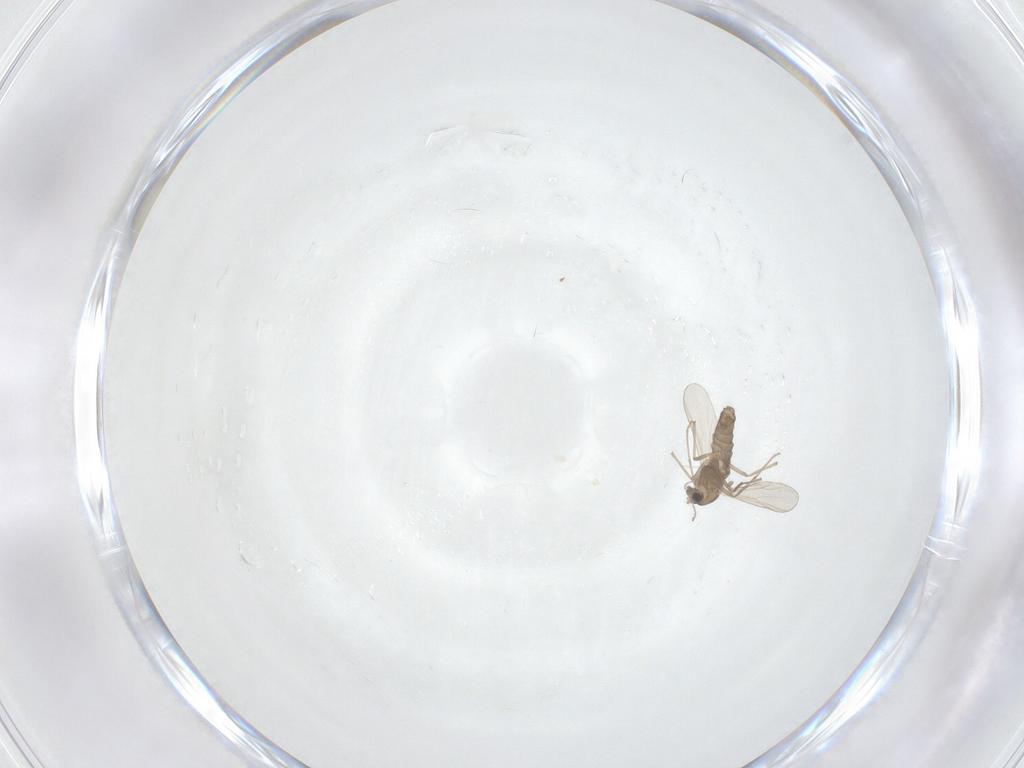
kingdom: Animalia
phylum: Arthropoda
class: Insecta
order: Diptera
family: Chironomidae
